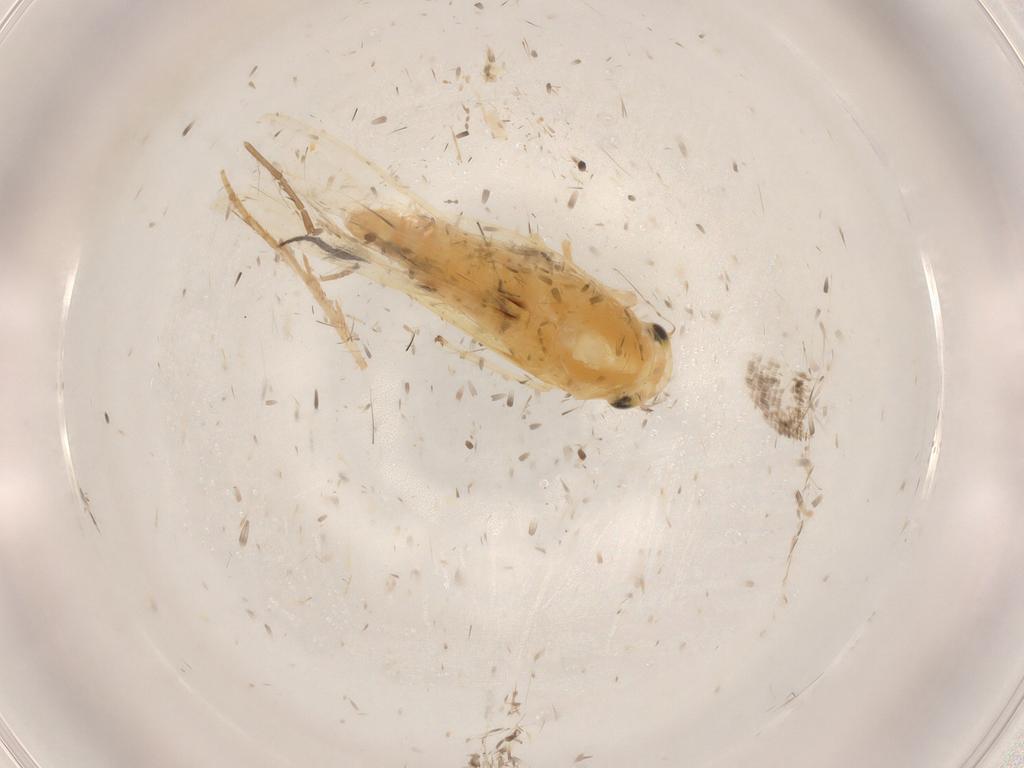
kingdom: Animalia
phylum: Arthropoda
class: Insecta
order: Hemiptera
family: Cicadellidae
